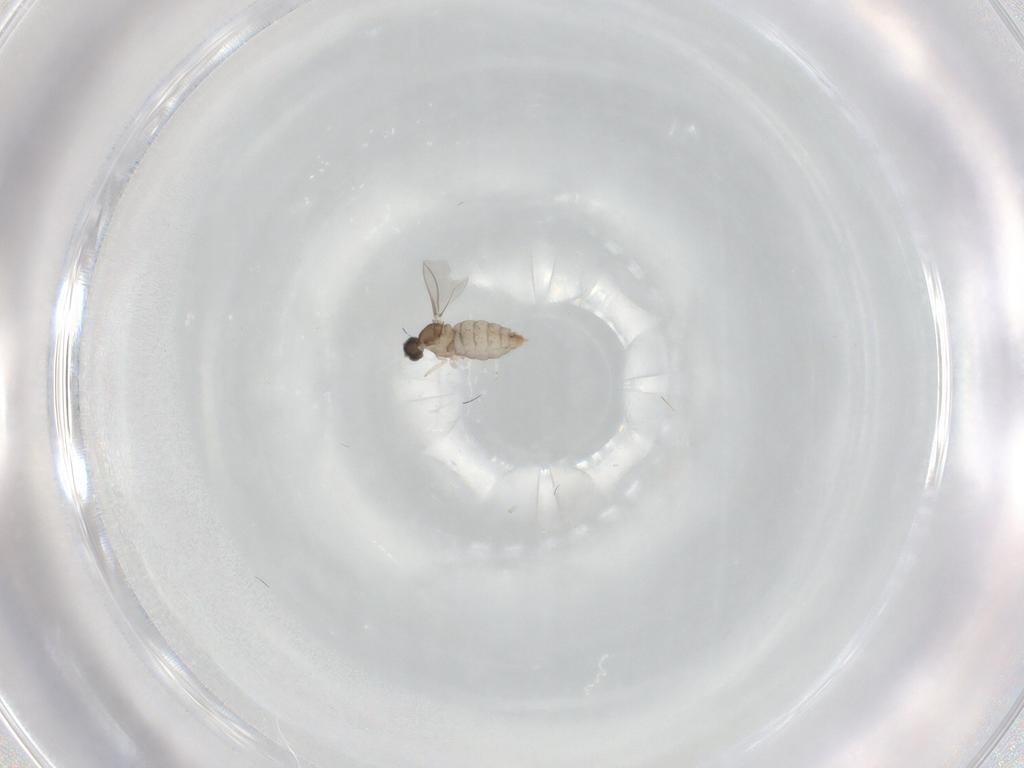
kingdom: Animalia
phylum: Arthropoda
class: Insecta
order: Diptera
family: Cecidomyiidae
